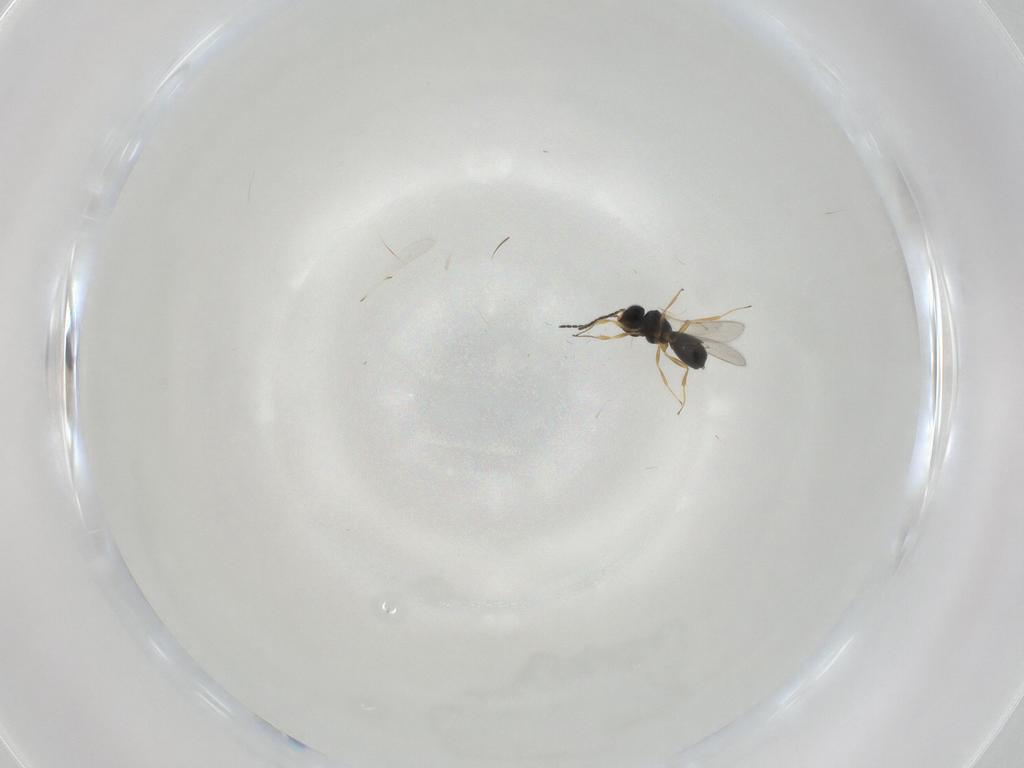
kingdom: Animalia
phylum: Arthropoda
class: Insecta
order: Hymenoptera
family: Scelionidae
